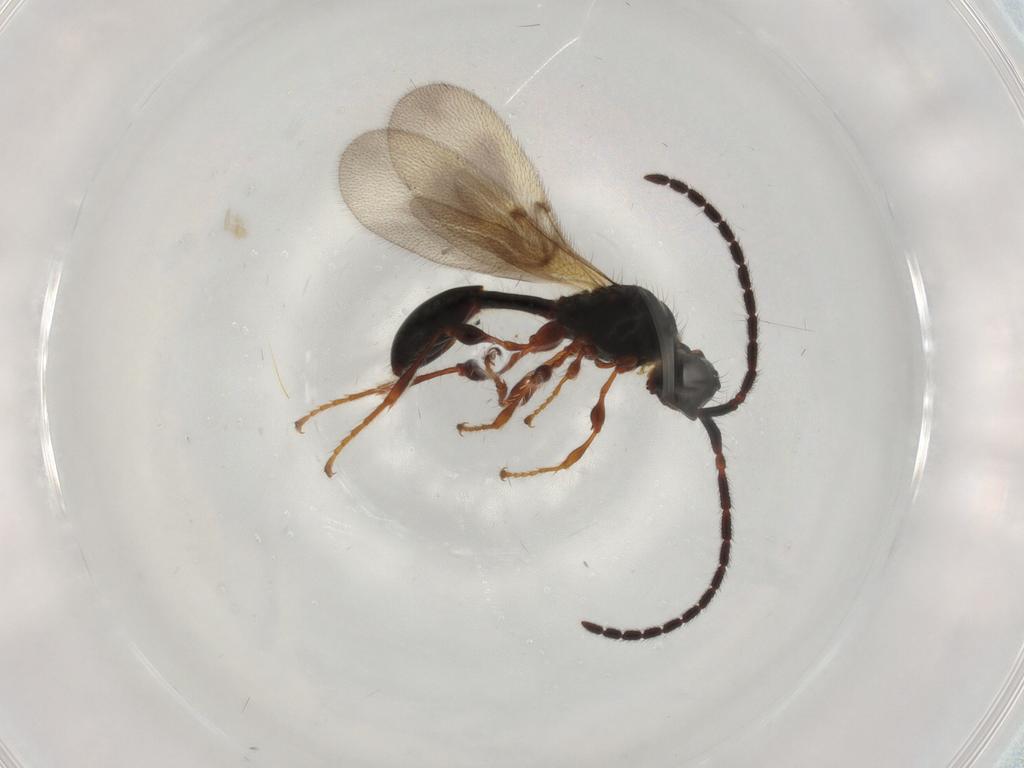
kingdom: Animalia
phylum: Arthropoda
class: Insecta
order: Hymenoptera
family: Diapriidae
